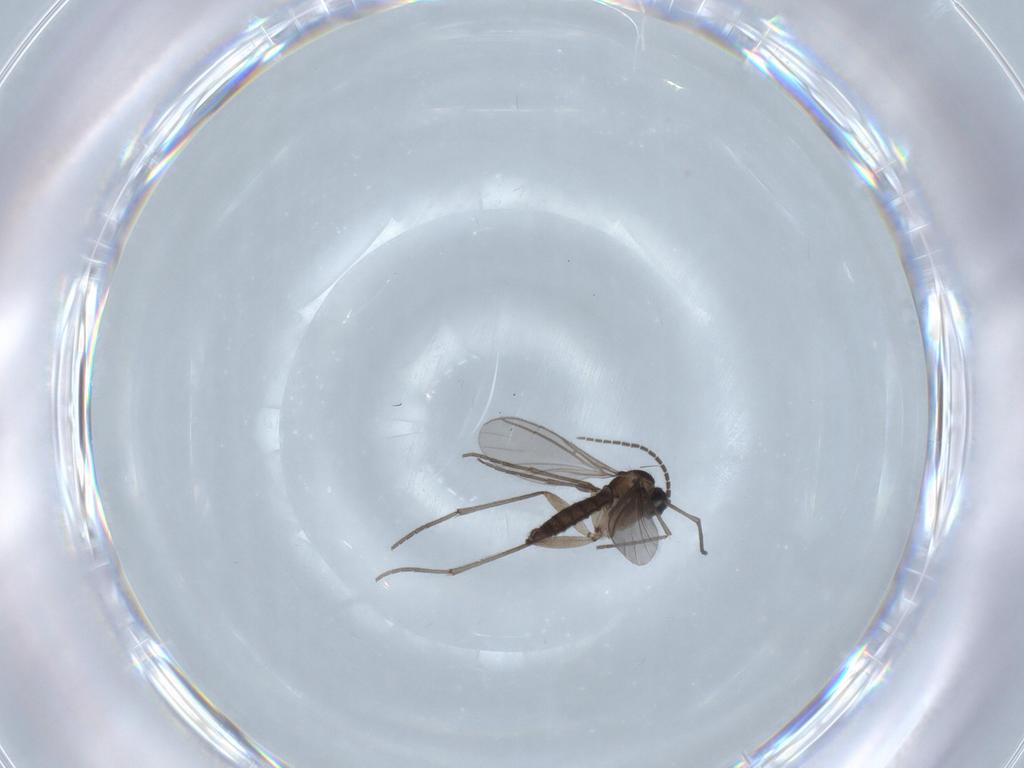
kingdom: Animalia
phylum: Arthropoda
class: Insecta
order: Diptera
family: Sciaridae
